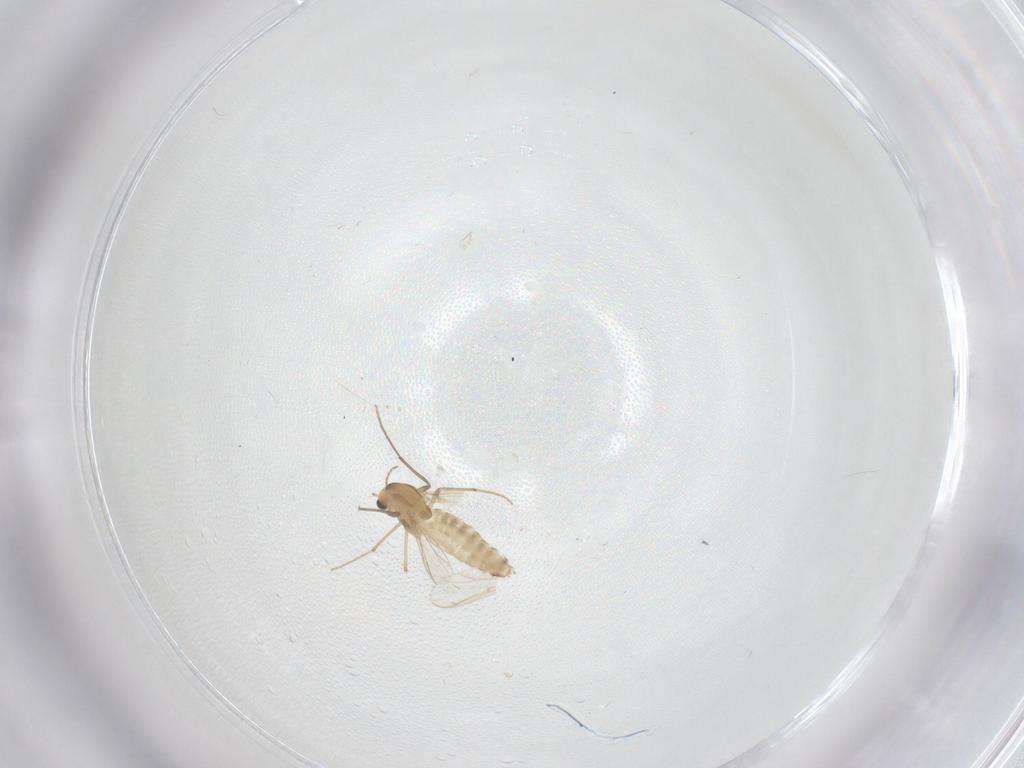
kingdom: Animalia
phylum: Arthropoda
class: Insecta
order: Diptera
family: Chironomidae
